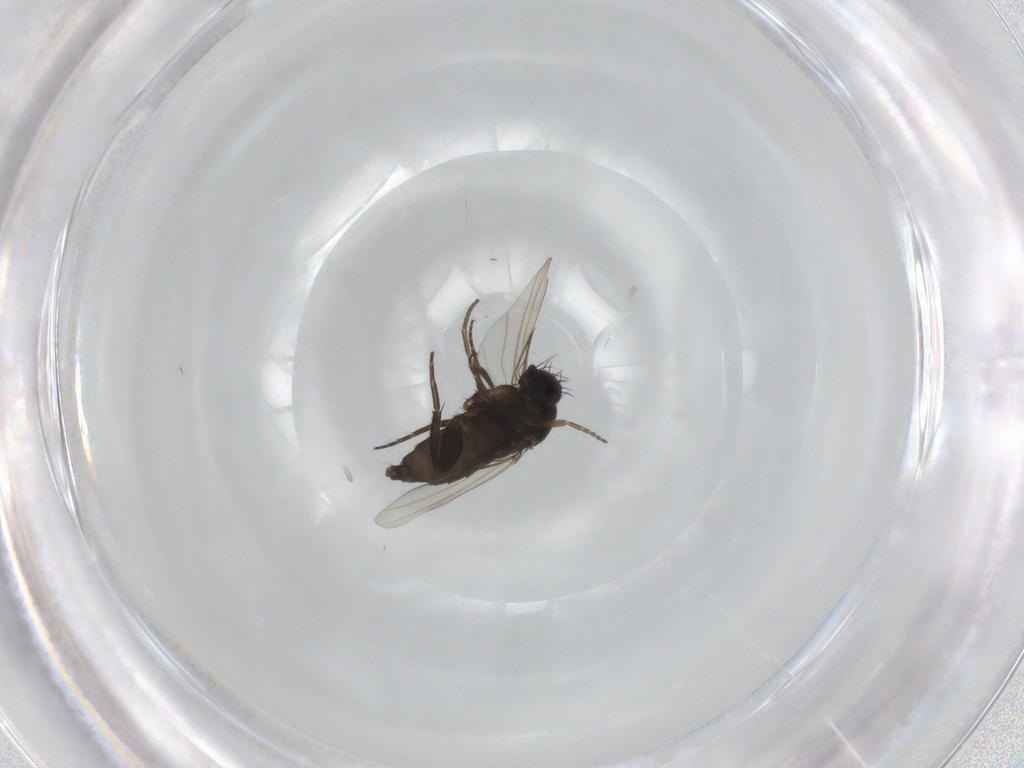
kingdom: Animalia
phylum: Arthropoda
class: Insecta
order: Diptera
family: Phoridae
